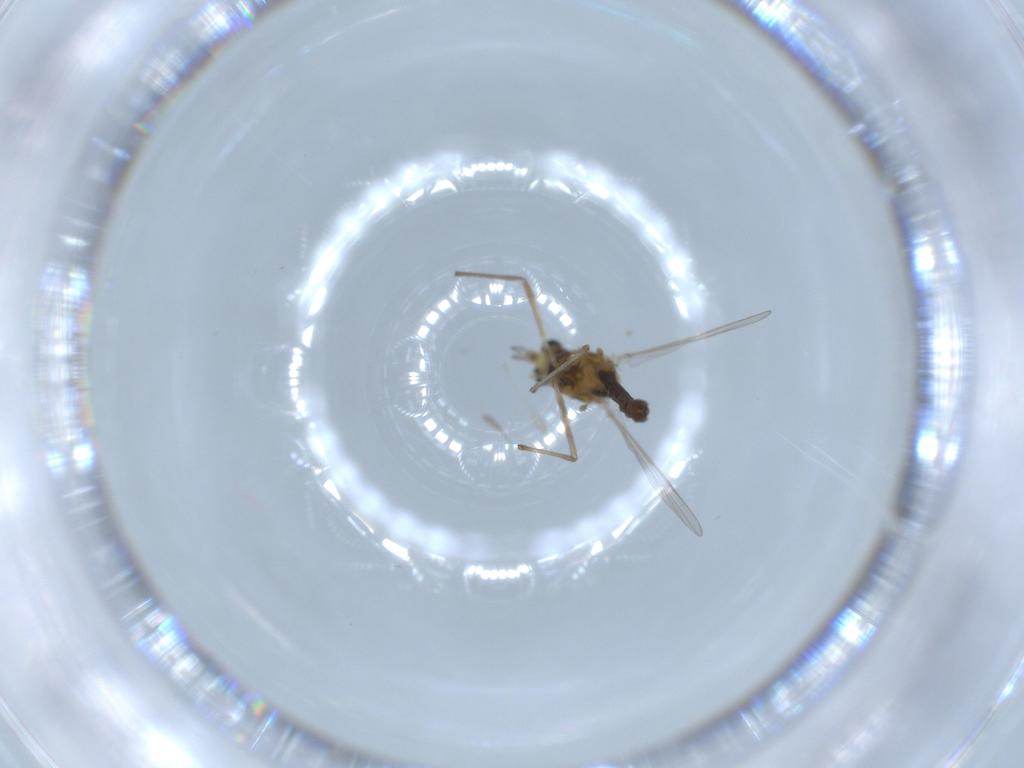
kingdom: Animalia
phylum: Arthropoda
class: Insecta
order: Diptera
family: Chironomidae
